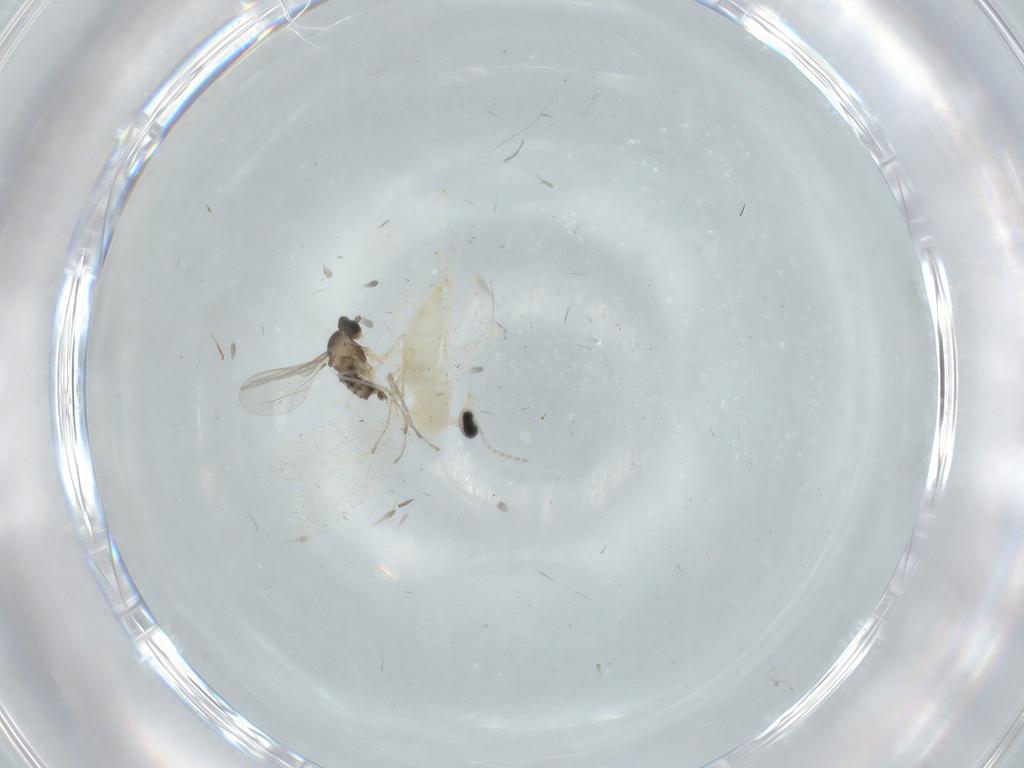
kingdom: Animalia
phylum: Arthropoda
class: Insecta
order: Diptera
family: Cecidomyiidae
